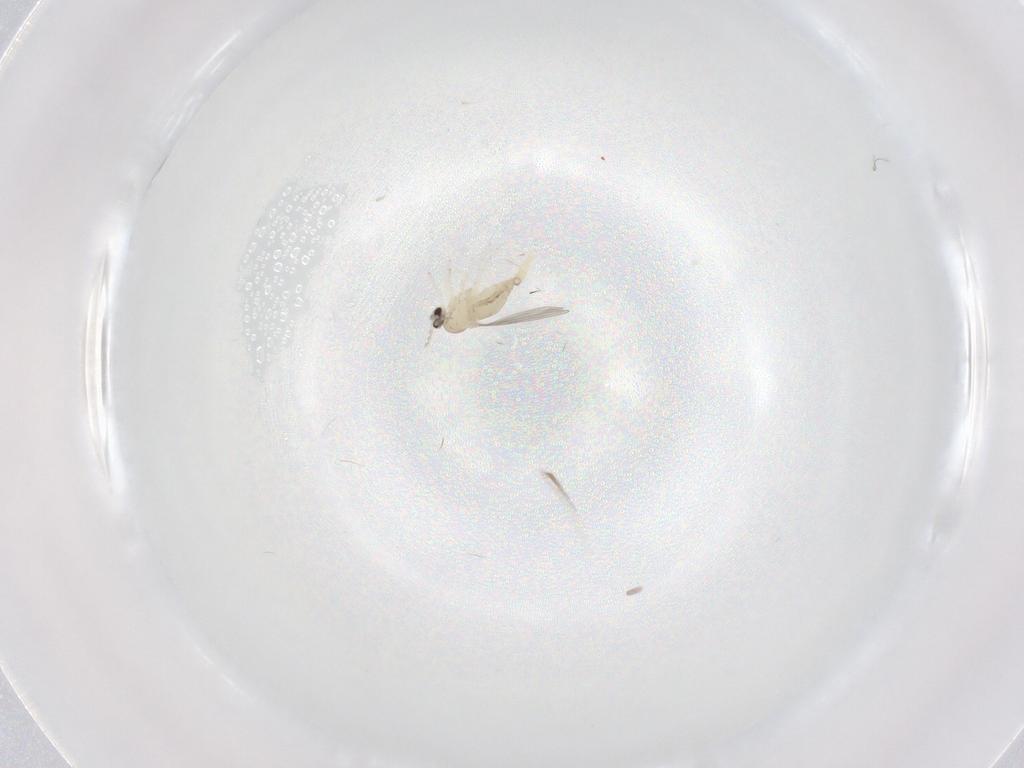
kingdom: Animalia
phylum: Arthropoda
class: Insecta
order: Diptera
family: Cecidomyiidae
